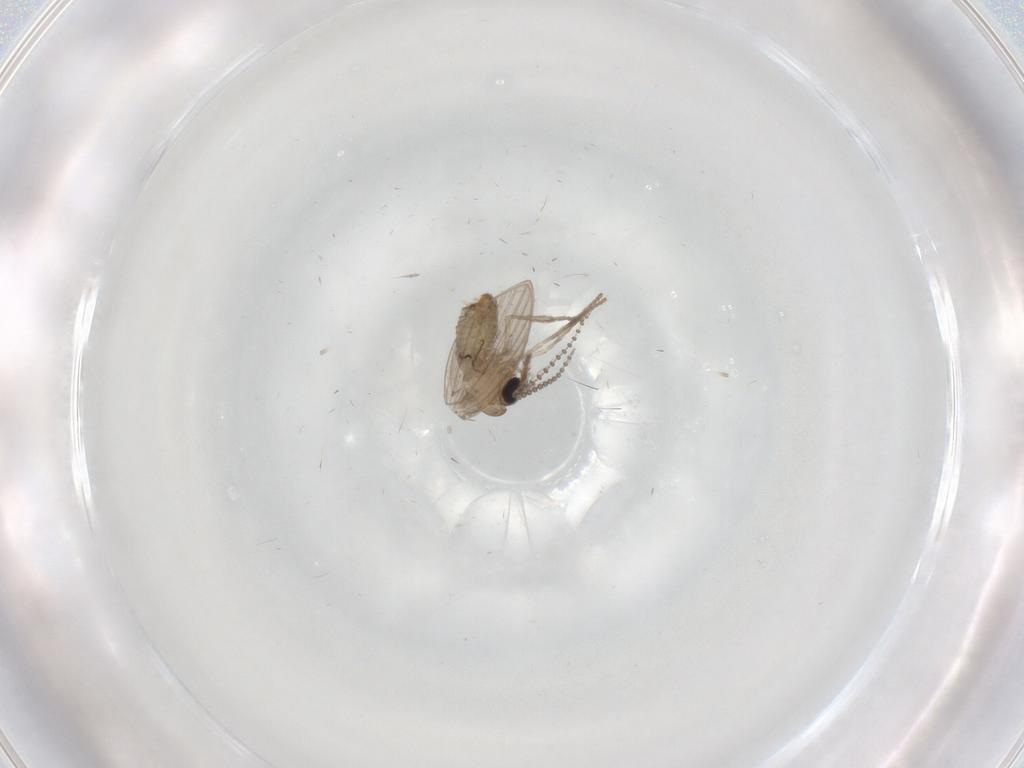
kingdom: Animalia
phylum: Arthropoda
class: Insecta
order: Diptera
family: Psychodidae
